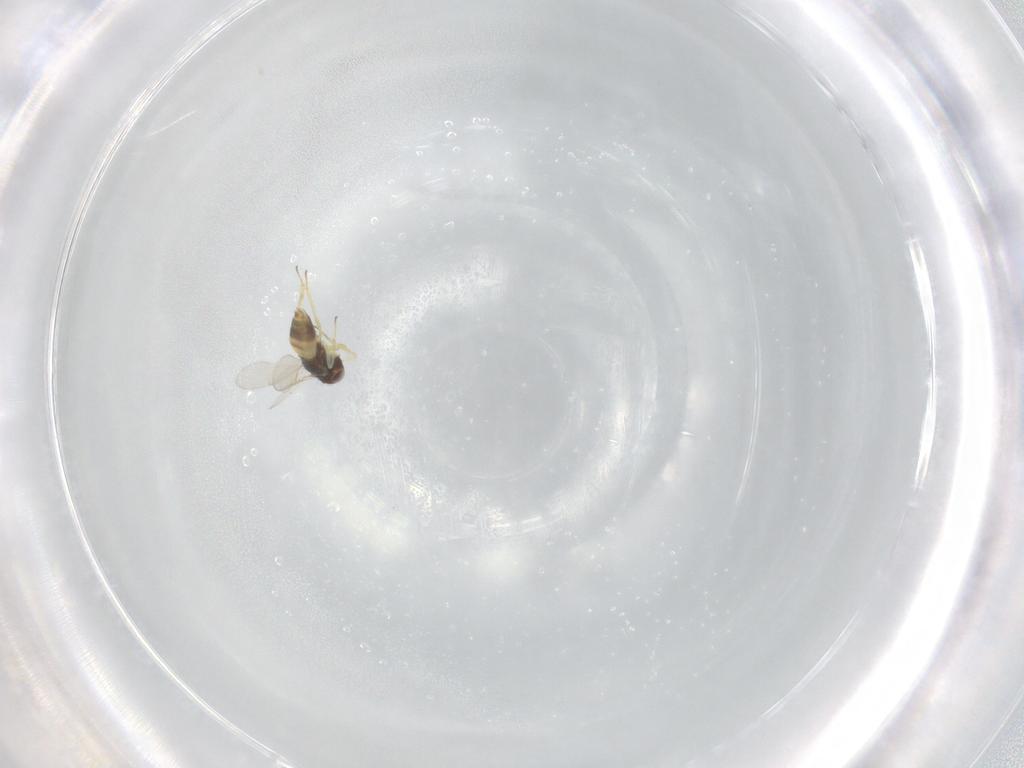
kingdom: Animalia
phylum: Arthropoda
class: Insecta
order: Hymenoptera
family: Aphelinidae
